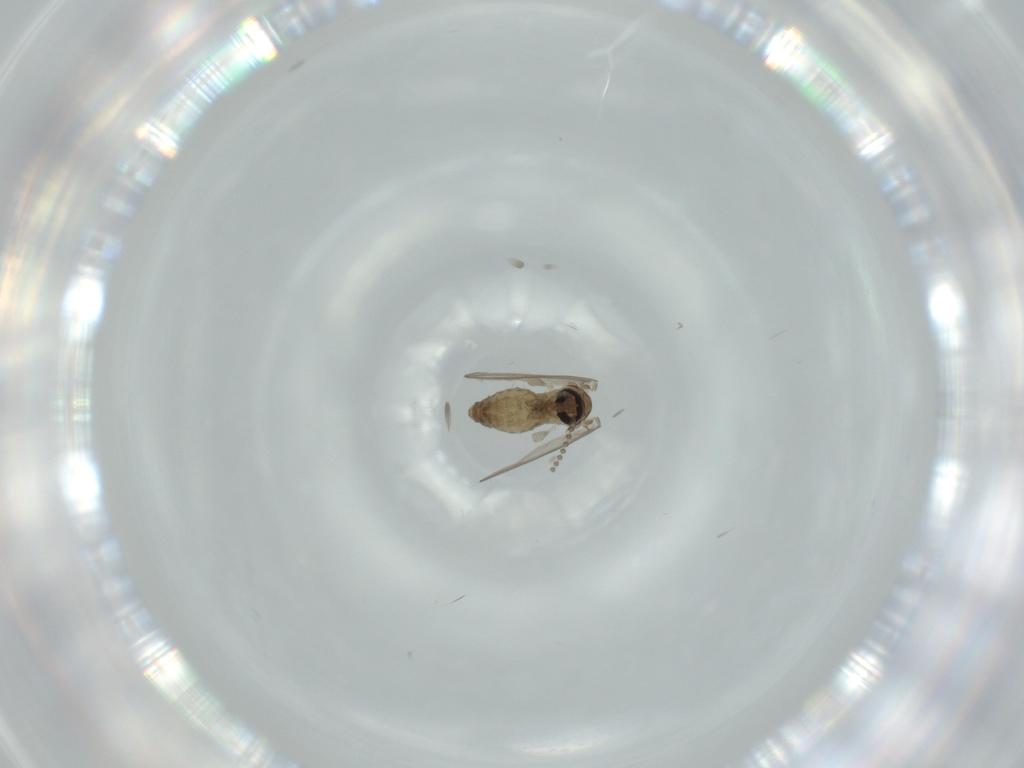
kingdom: Animalia
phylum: Arthropoda
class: Insecta
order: Diptera
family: Psychodidae
